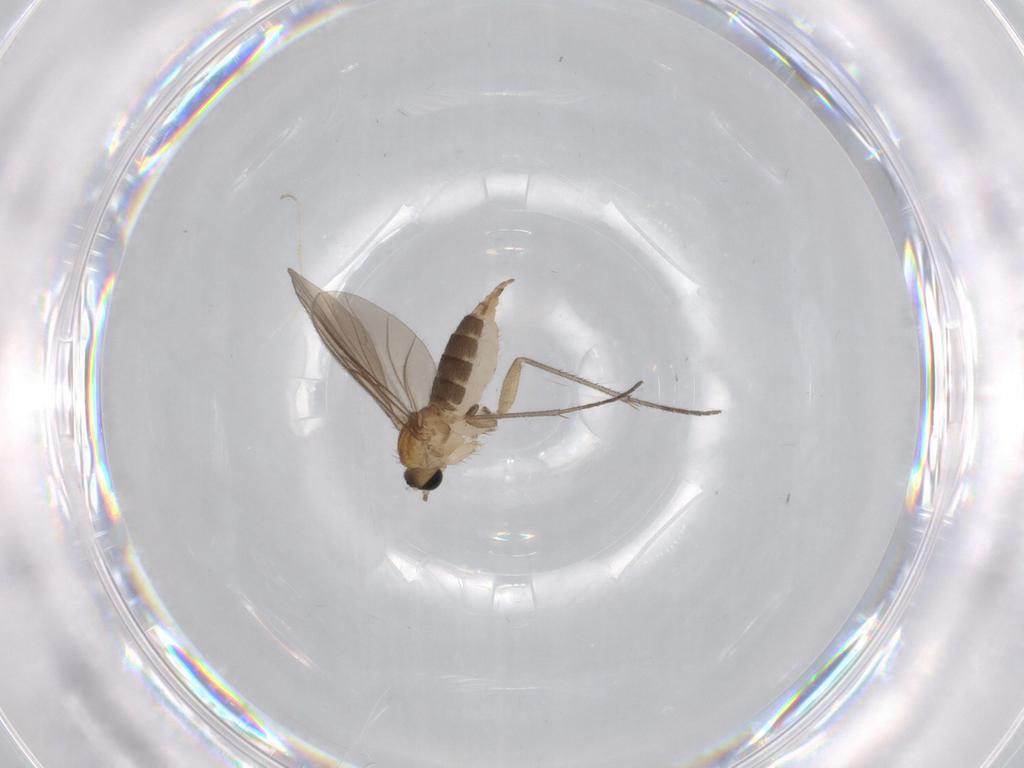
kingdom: Animalia
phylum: Arthropoda
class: Insecta
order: Diptera
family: Sciaridae
